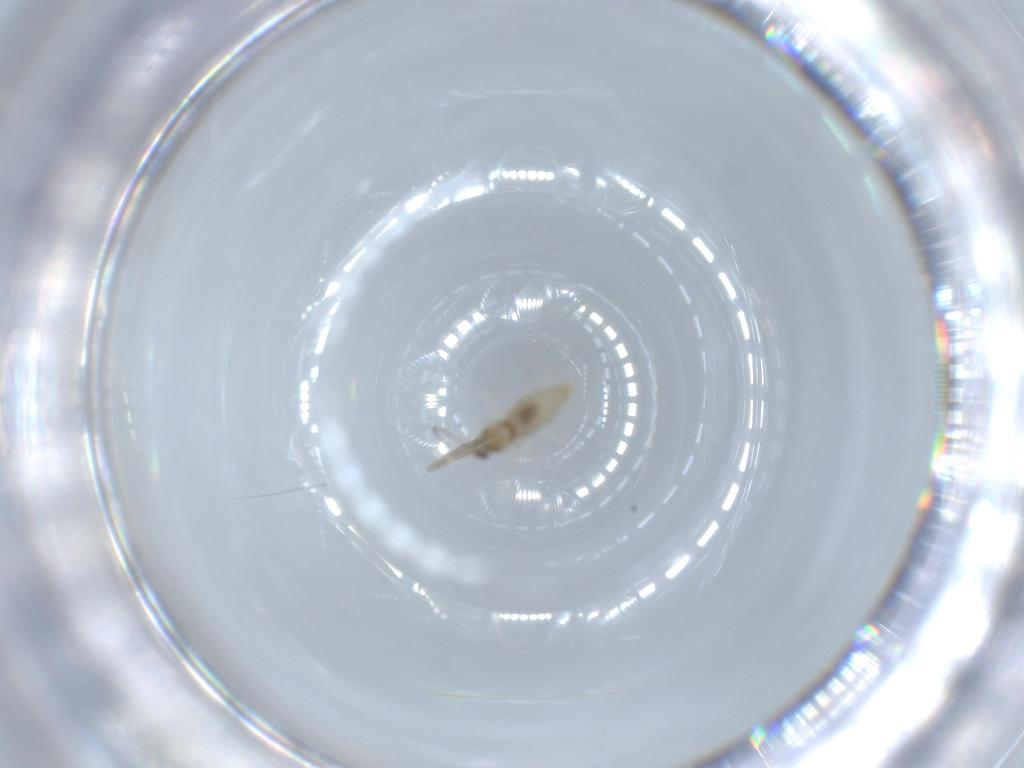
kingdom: Animalia
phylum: Arthropoda
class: Insecta
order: Diptera
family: Cecidomyiidae
